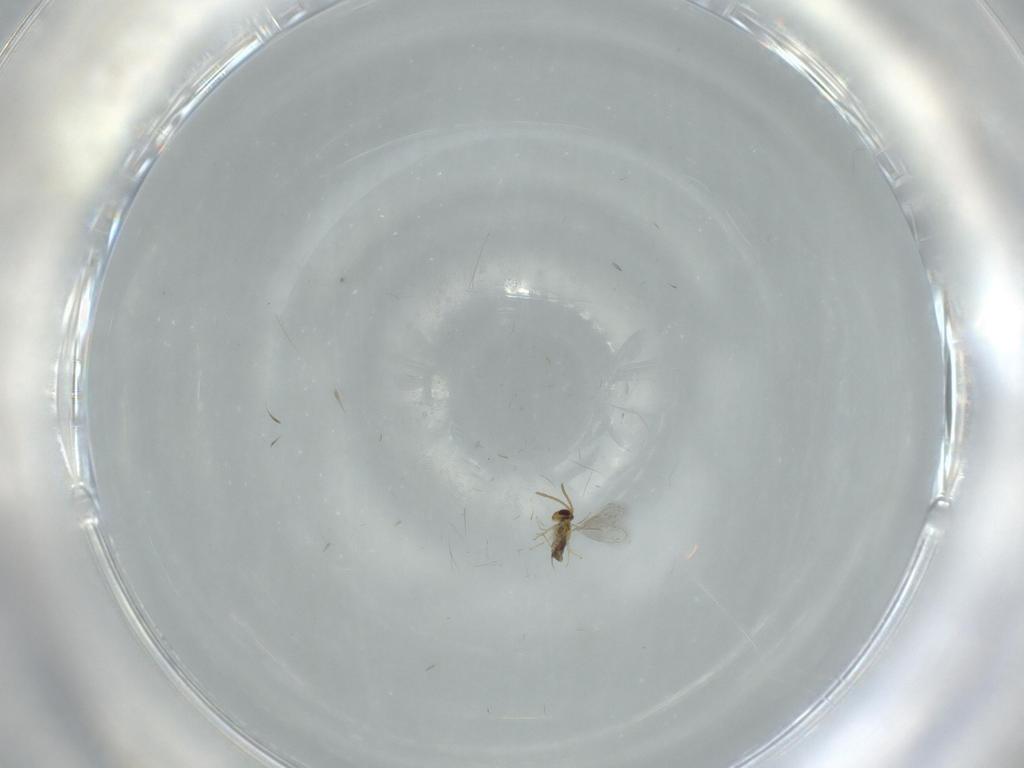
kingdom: Animalia
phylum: Arthropoda
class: Insecta
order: Hymenoptera
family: Aphelinidae
